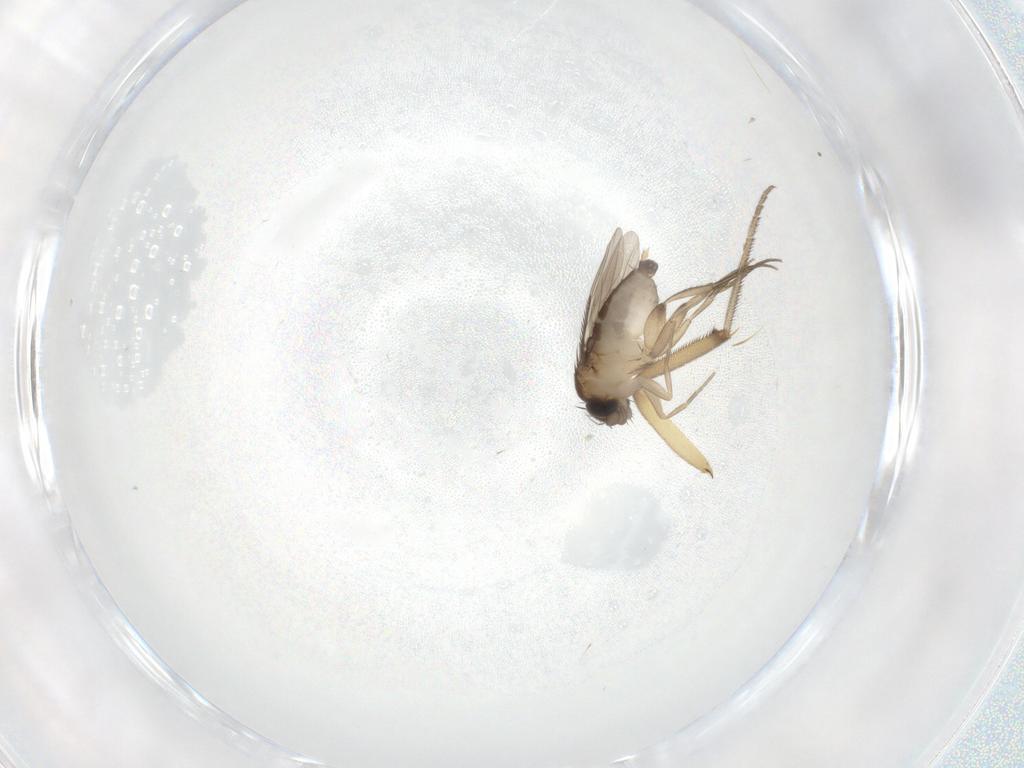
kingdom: Animalia
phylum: Arthropoda
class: Insecta
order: Diptera
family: Phoridae
